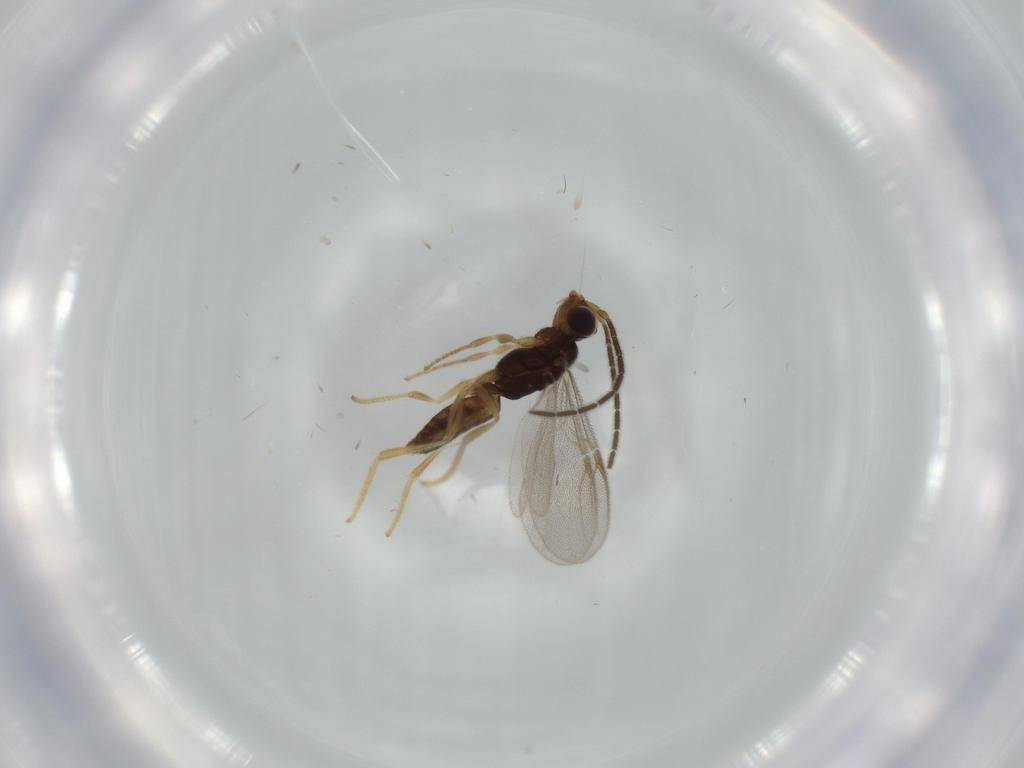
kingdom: Animalia
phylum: Arthropoda
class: Insecta
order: Hymenoptera
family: Dryinidae
